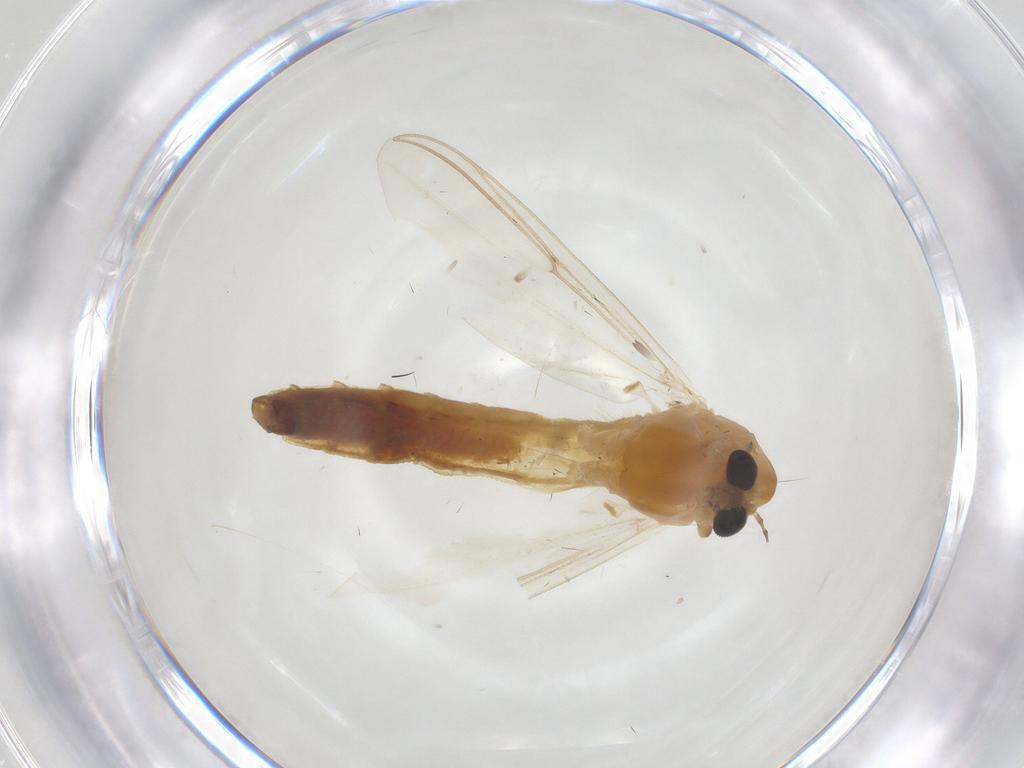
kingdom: Animalia
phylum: Arthropoda
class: Insecta
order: Diptera
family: Chironomidae
